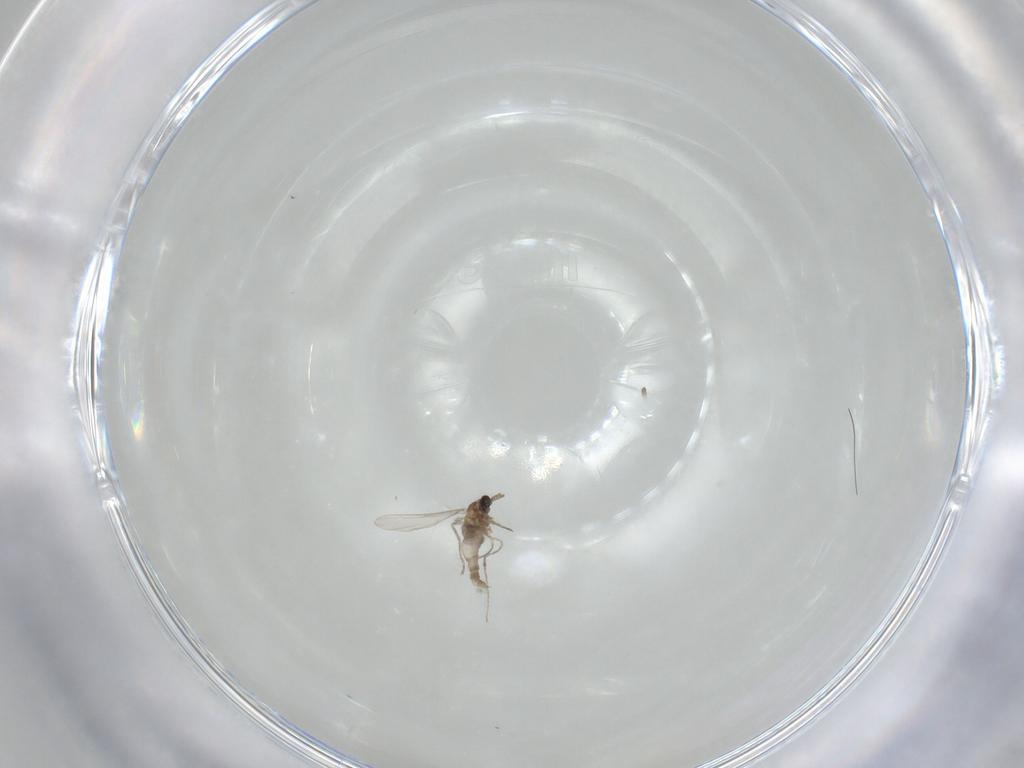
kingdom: Animalia
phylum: Arthropoda
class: Insecta
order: Diptera
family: Cecidomyiidae
